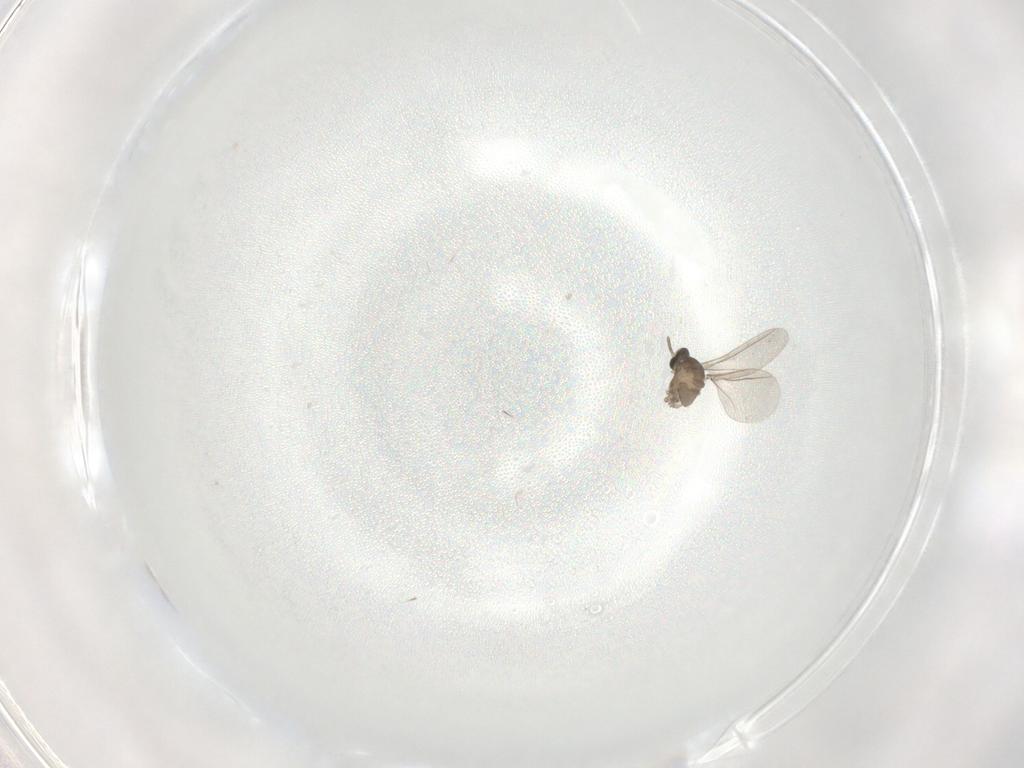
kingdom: Animalia
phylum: Arthropoda
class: Insecta
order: Diptera
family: Cecidomyiidae
